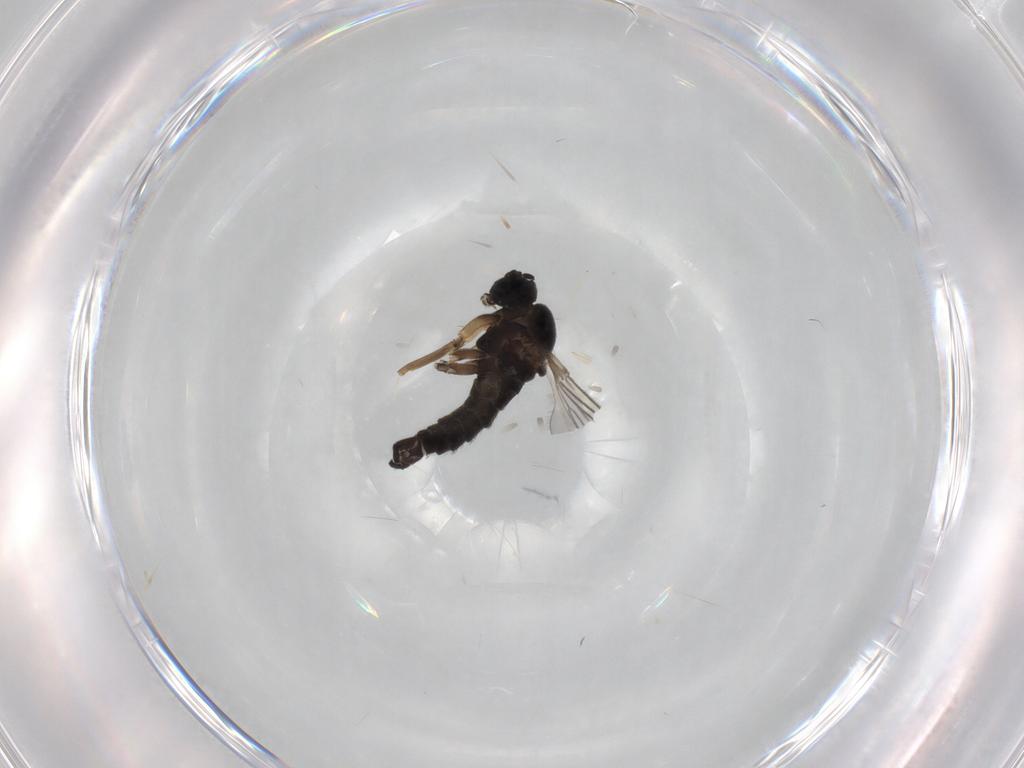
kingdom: Animalia
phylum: Arthropoda
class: Insecta
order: Diptera
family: Sciaridae
